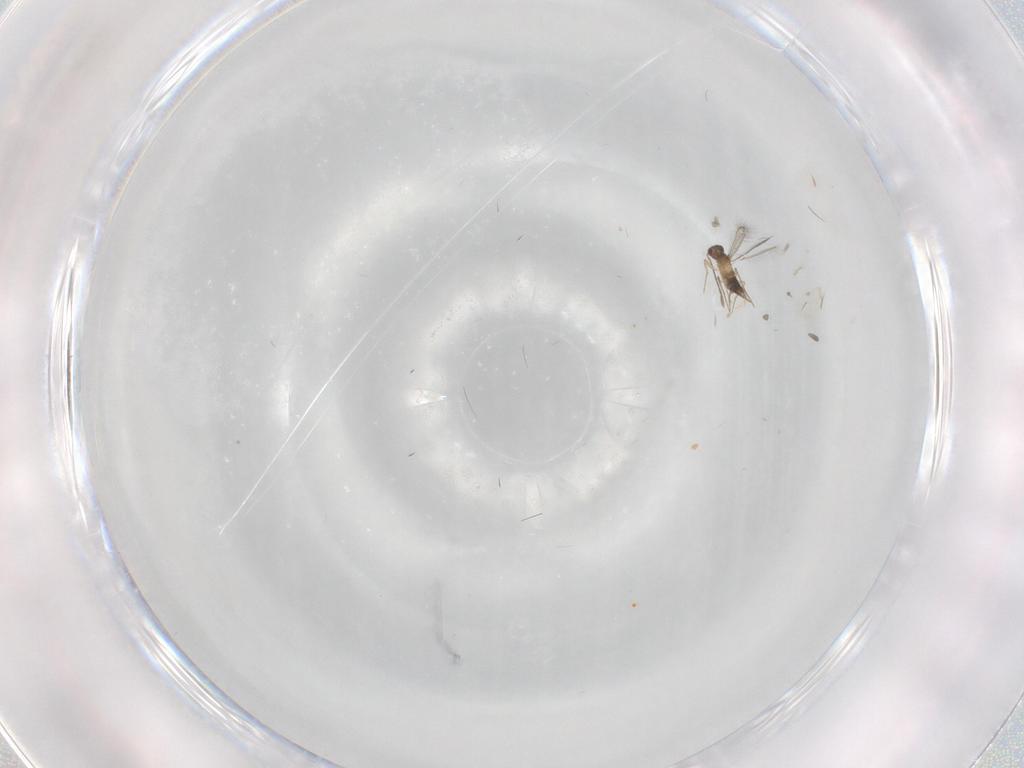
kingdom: Animalia
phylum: Arthropoda
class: Insecta
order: Diptera
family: Cecidomyiidae
